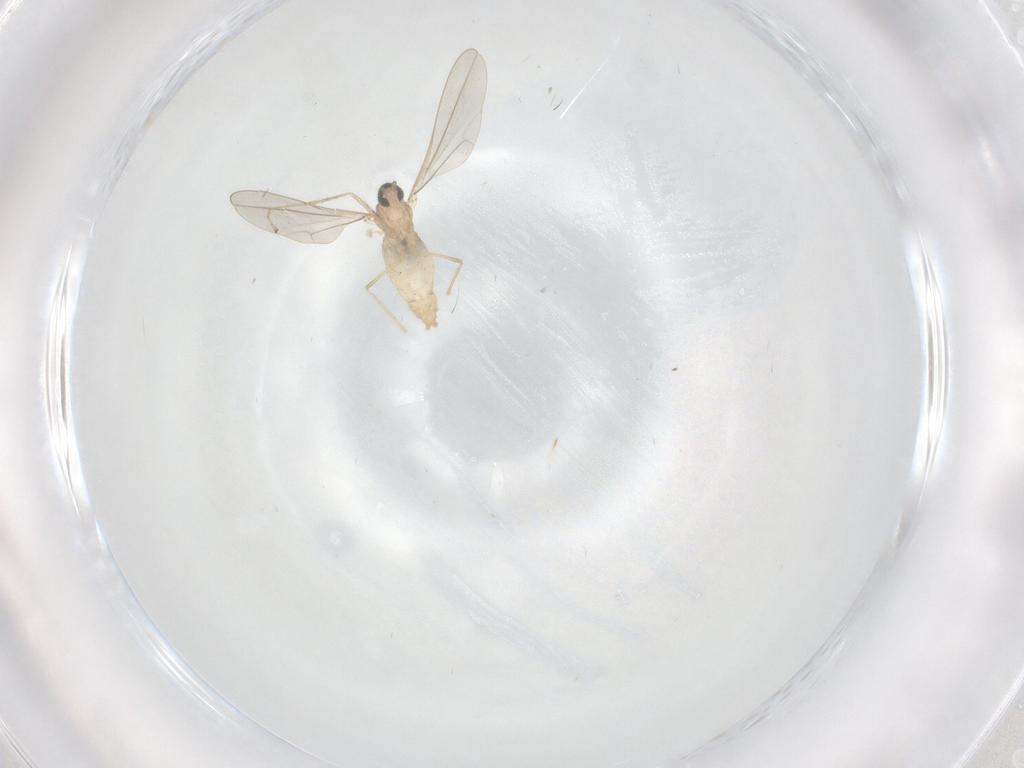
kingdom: Animalia
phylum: Arthropoda
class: Insecta
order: Diptera
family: Cecidomyiidae
